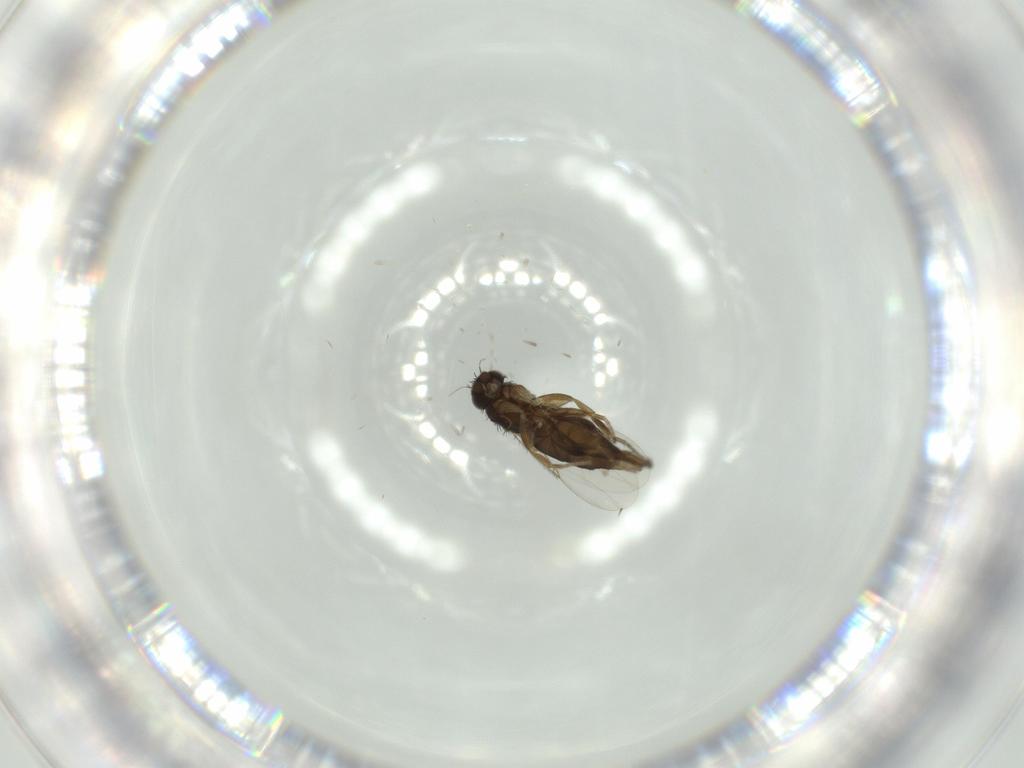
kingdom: Animalia
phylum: Arthropoda
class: Insecta
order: Diptera
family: Phoridae
